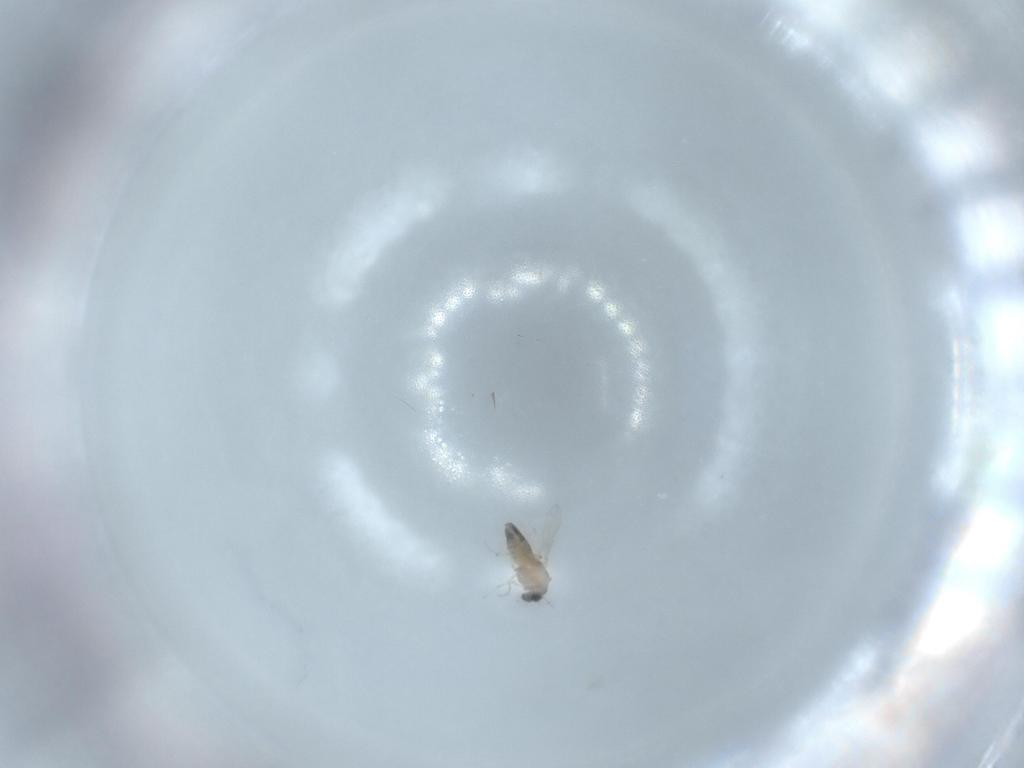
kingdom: Animalia
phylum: Arthropoda
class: Insecta
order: Diptera
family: Cecidomyiidae
